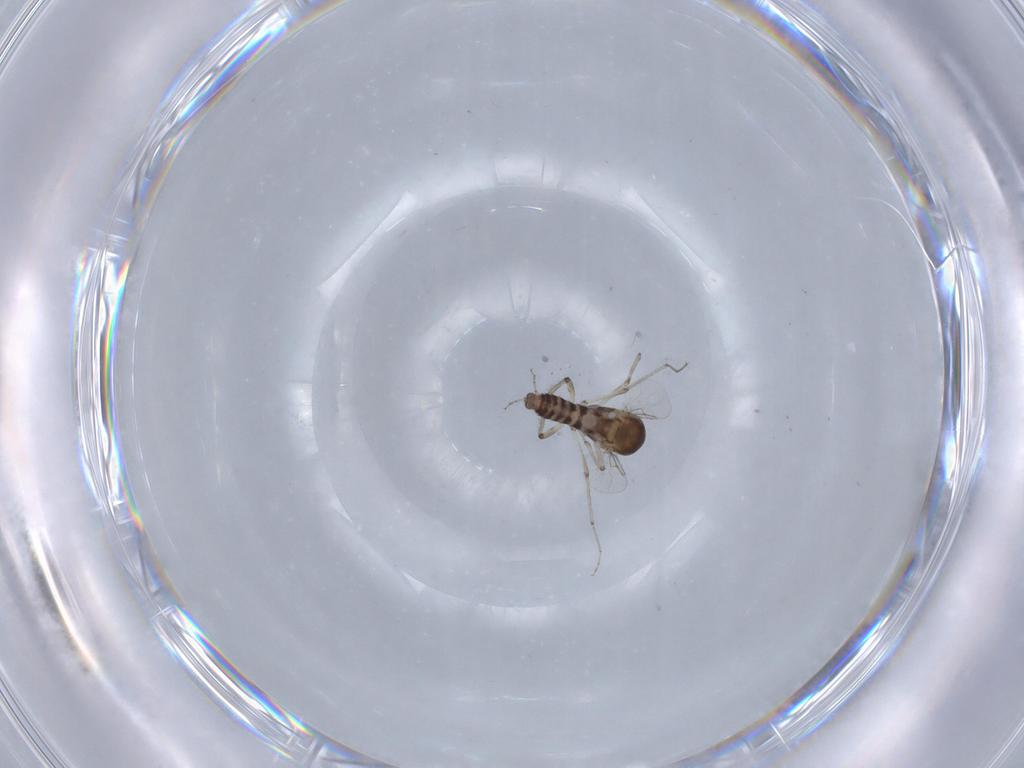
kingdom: Animalia
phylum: Arthropoda
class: Insecta
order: Diptera
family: Ceratopogonidae
